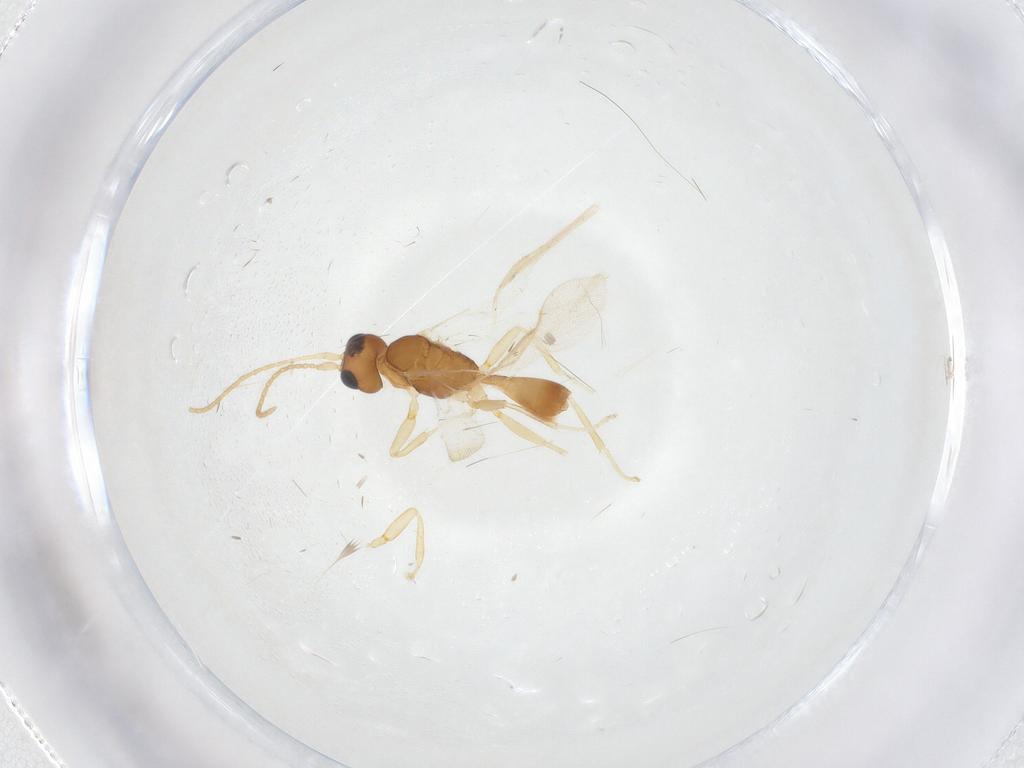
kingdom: Animalia
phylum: Arthropoda
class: Insecta
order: Hymenoptera
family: Braconidae
